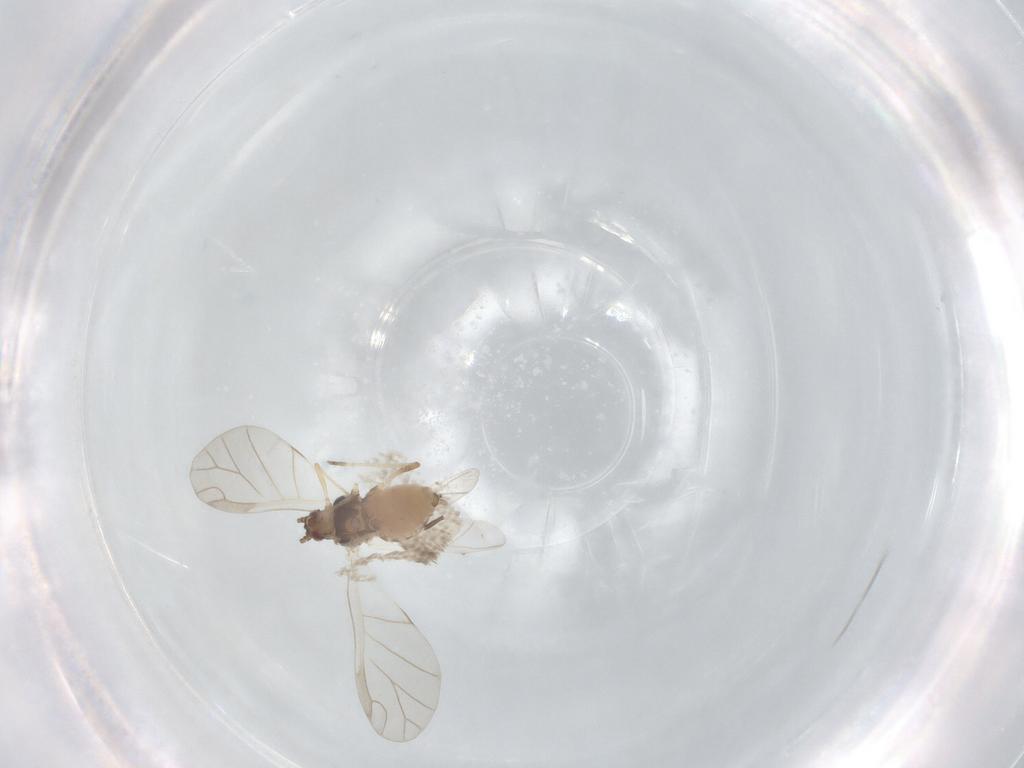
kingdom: Animalia
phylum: Arthropoda
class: Insecta
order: Hemiptera
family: Aphididae
